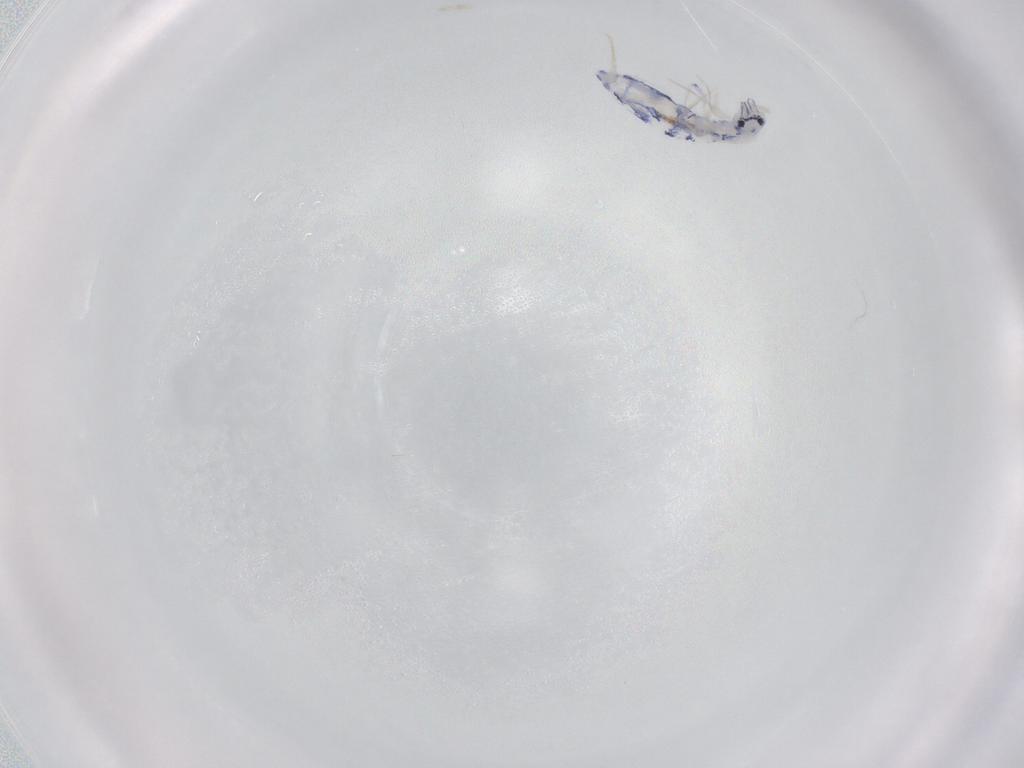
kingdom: Animalia
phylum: Arthropoda
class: Collembola
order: Entomobryomorpha
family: Entomobryidae
